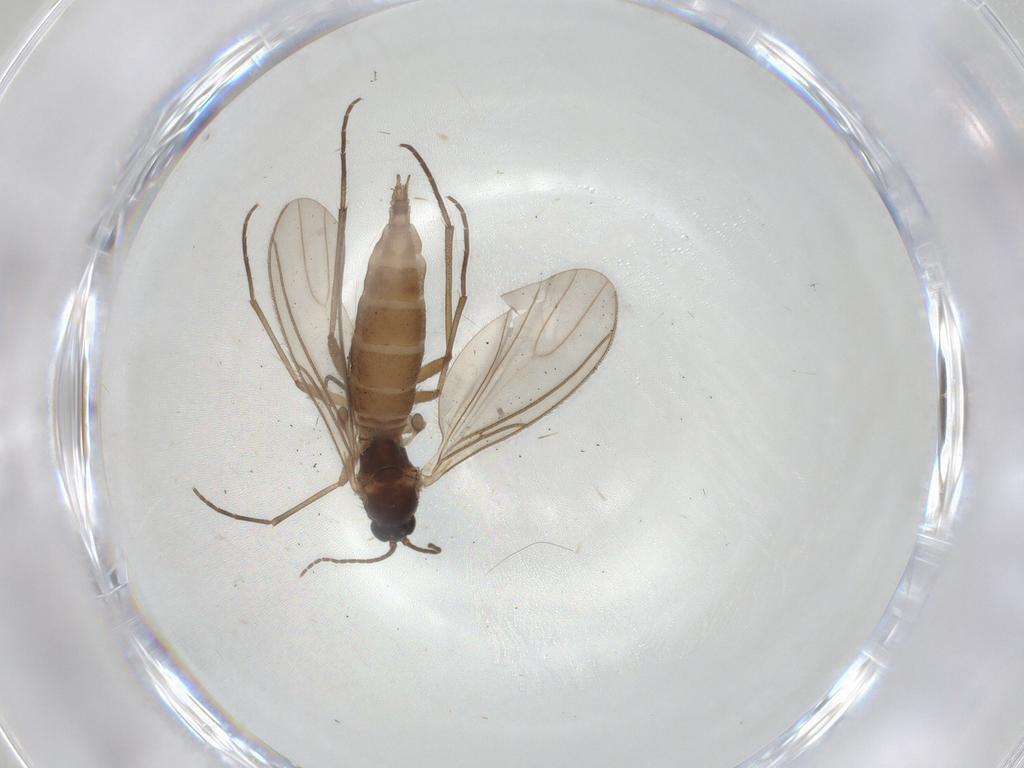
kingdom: Animalia
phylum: Arthropoda
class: Insecta
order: Diptera
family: Sciaridae
